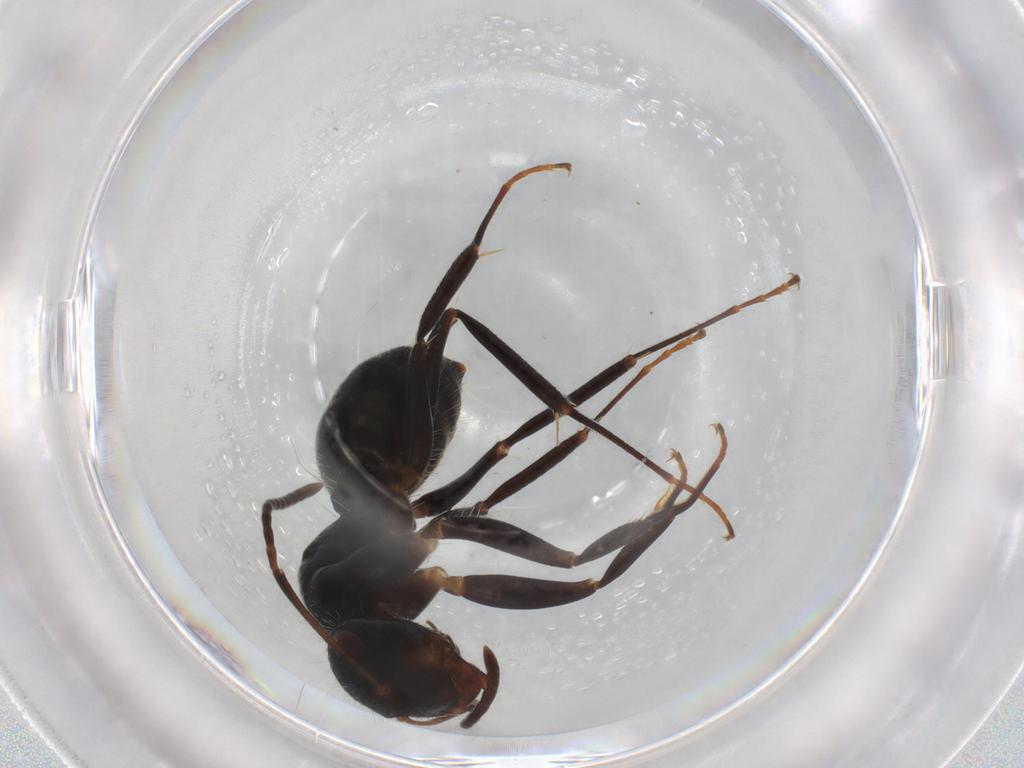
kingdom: Animalia
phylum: Arthropoda
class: Insecta
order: Hymenoptera
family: Formicidae
